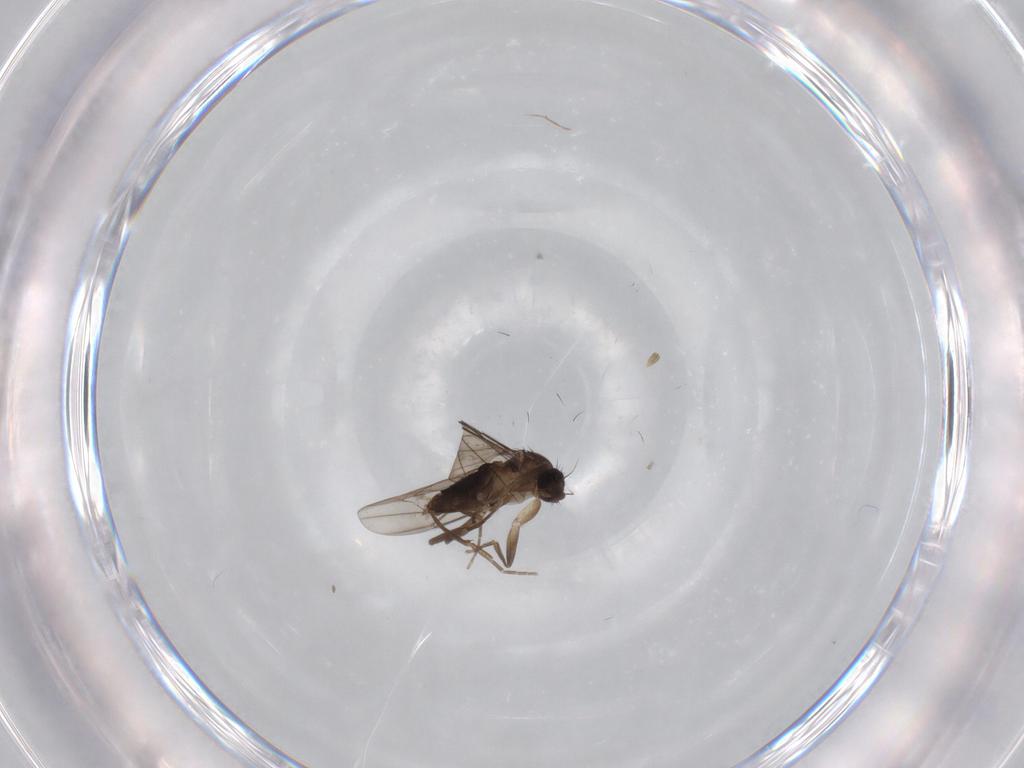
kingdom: Animalia
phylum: Arthropoda
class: Insecta
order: Diptera
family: Phoridae
